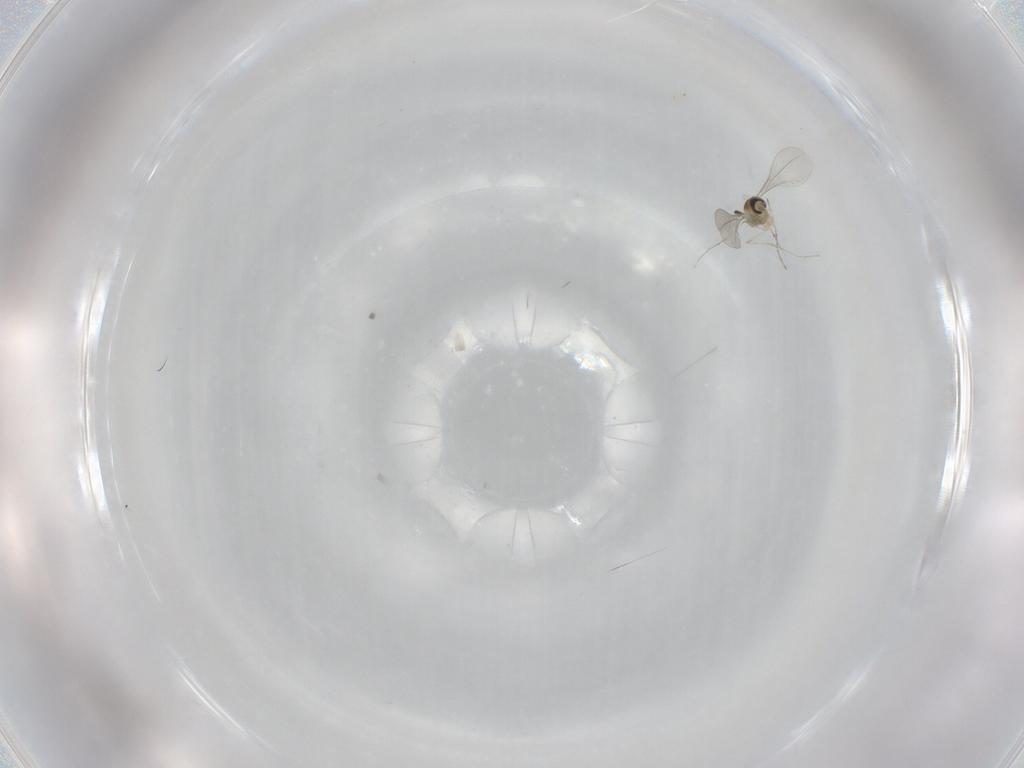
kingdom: Animalia
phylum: Arthropoda
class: Insecta
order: Diptera
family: Cecidomyiidae
